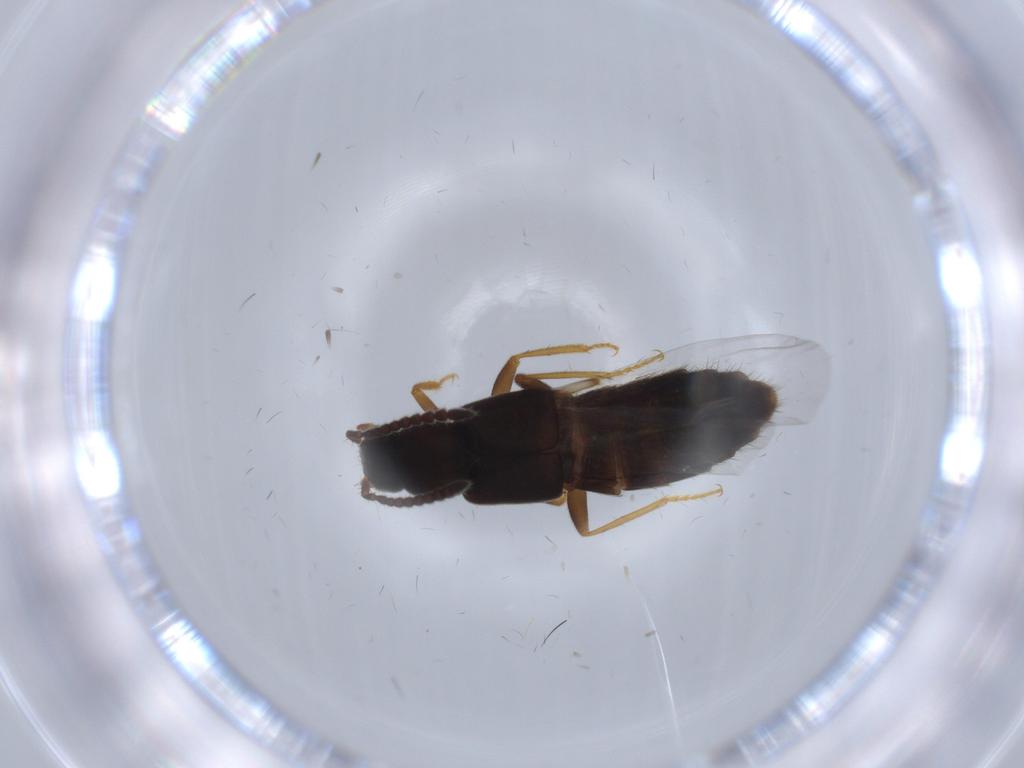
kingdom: Animalia
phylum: Arthropoda
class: Insecta
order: Coleoptera
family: Staphylinidae
